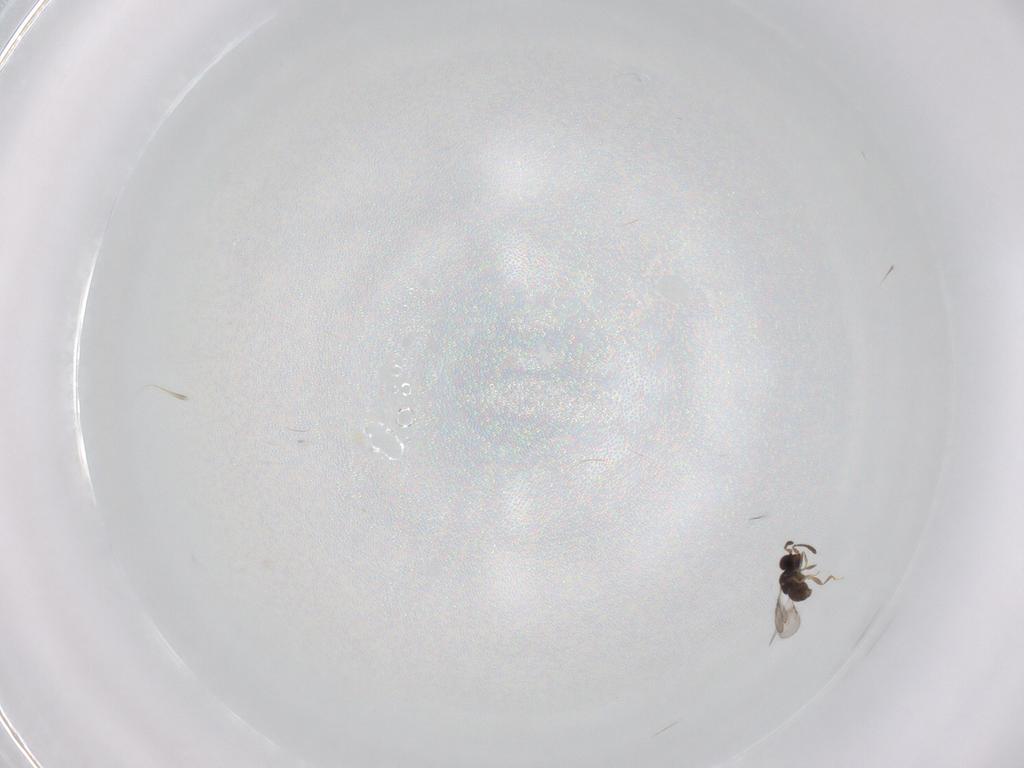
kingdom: Animalia
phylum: Arthropoda
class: Insecta
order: Hymenoptera
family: Ceraphronidae
